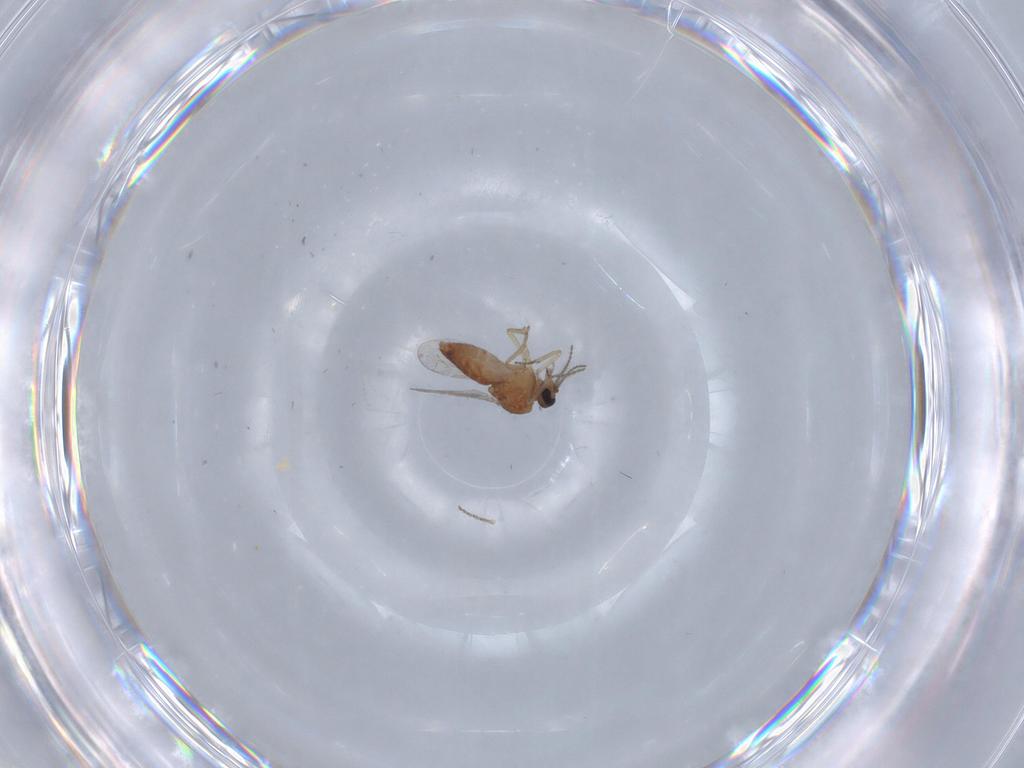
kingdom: Animalia
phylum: Arthropoda
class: Insecta
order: Diptera
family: Ceratopogonidae
